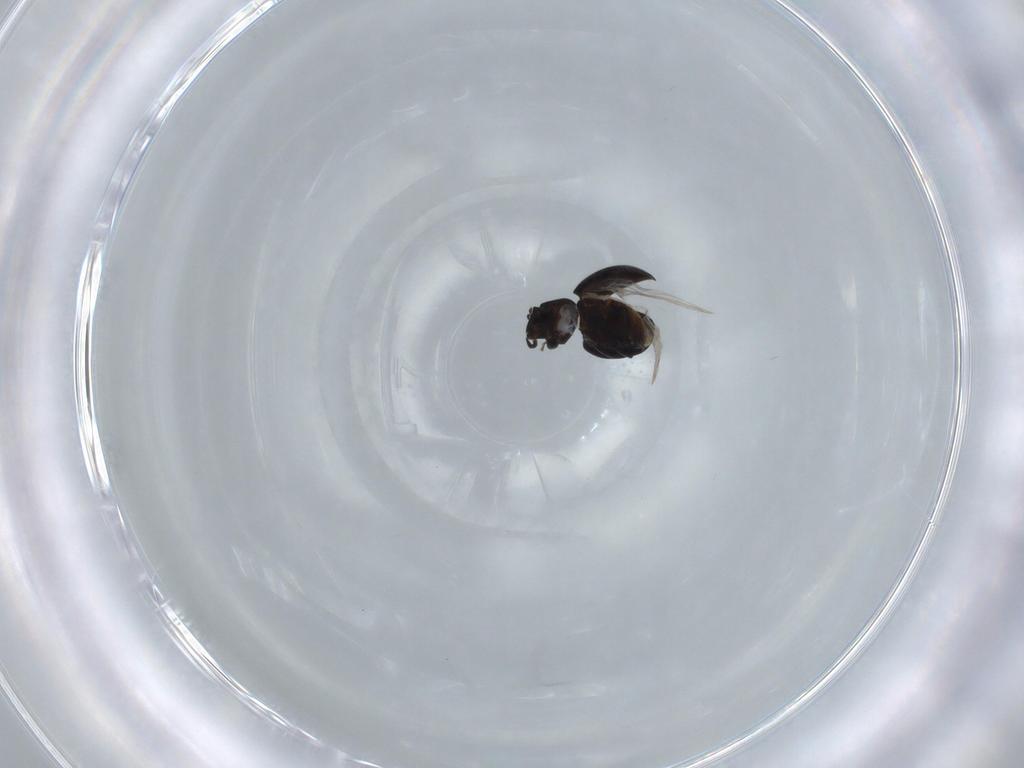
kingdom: Animalia
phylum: Arthropoda
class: Insecta
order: Coleoptera
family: Coccinellidae
